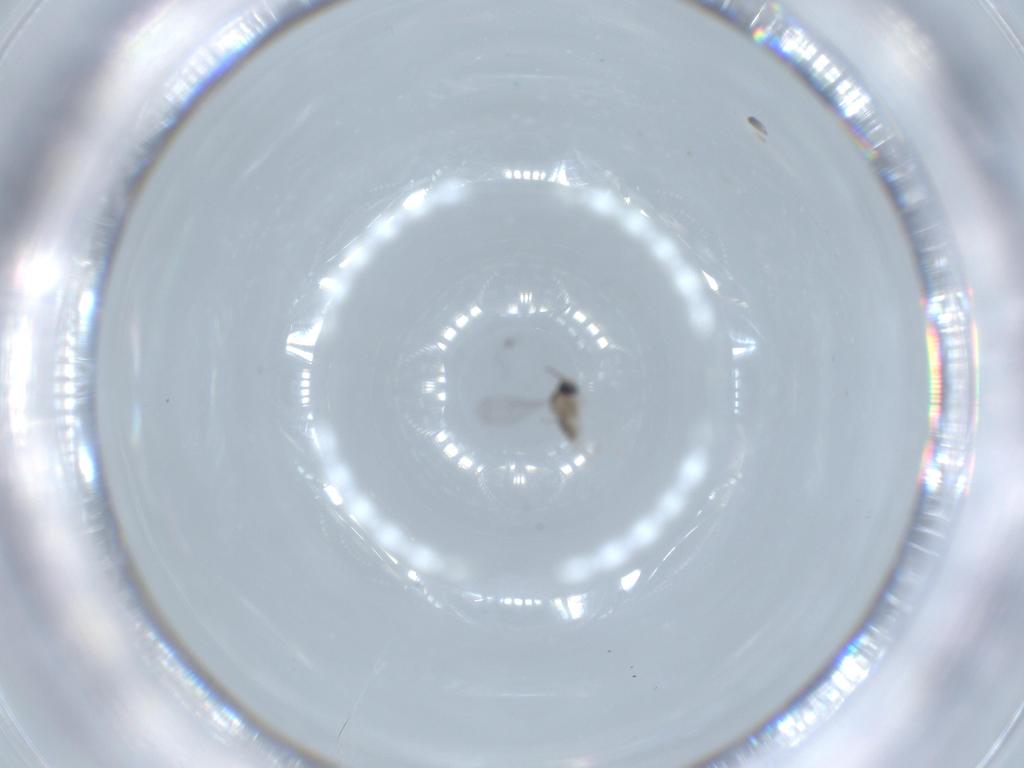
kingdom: Animalia
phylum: Arthropoda
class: Insecta
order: Diptera
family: Cecidomyiidae
